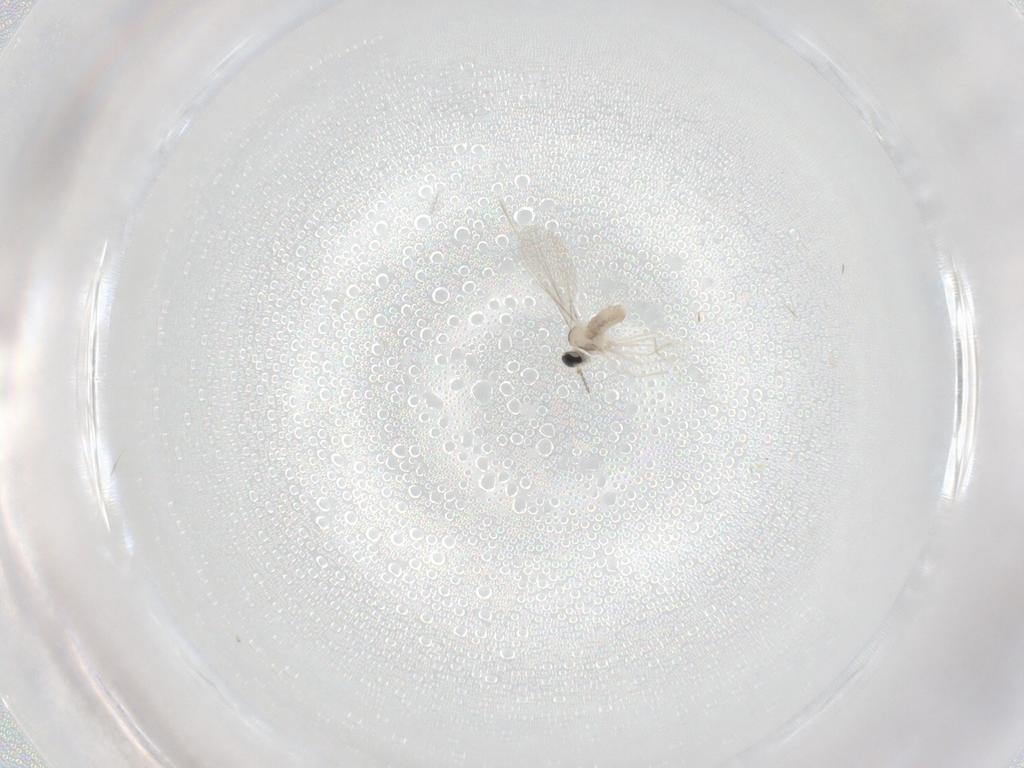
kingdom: Animalia
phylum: Arthropoda
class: Insecta
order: Diptera
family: Cecidomyiidae
